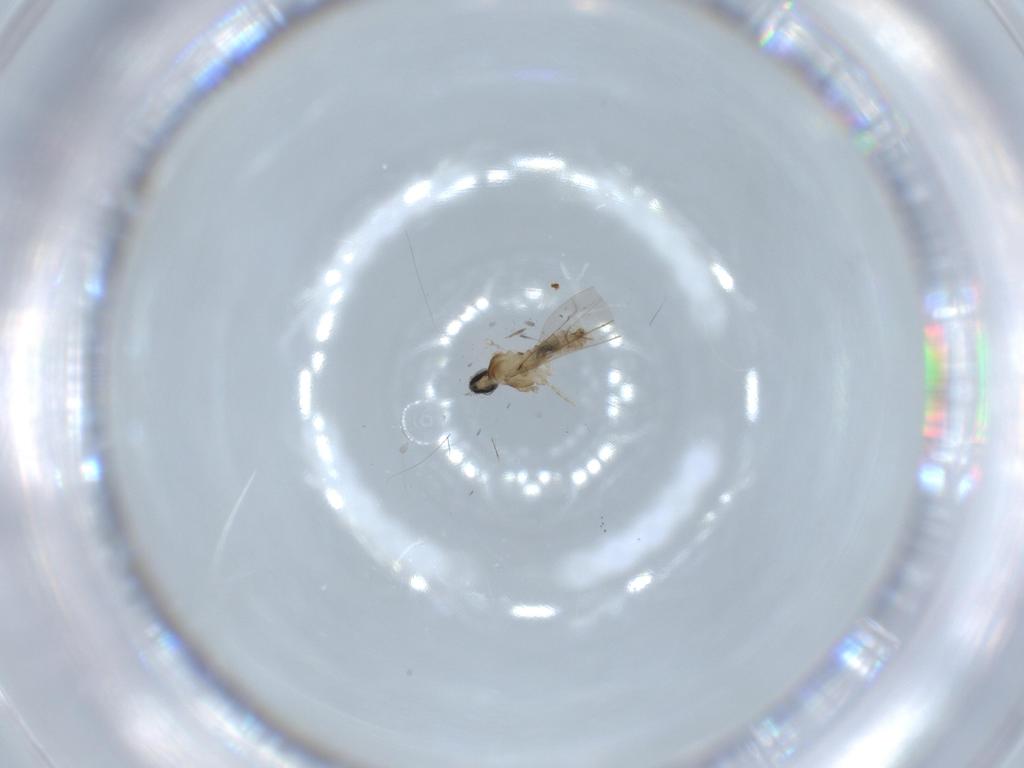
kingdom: Animalia
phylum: Arthropoda
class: Insecta
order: Diptera
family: Cecidomyiidae
